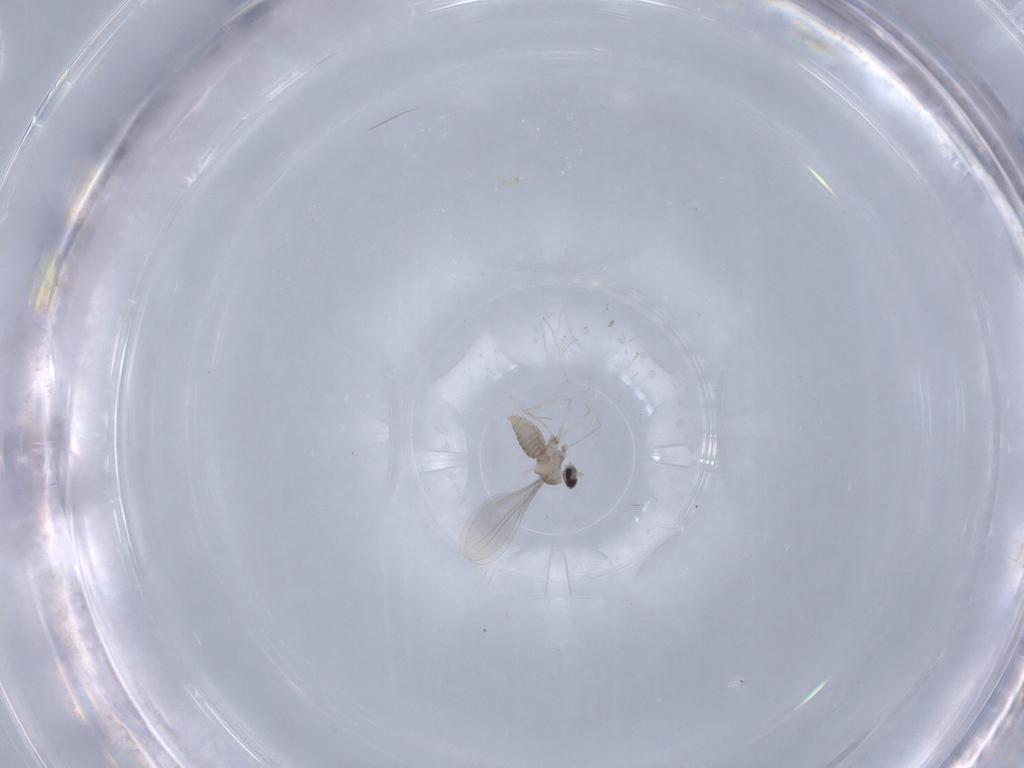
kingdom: Animalia
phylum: Arthropoda
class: Insecta
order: Diptera
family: Cecidomyiidae
